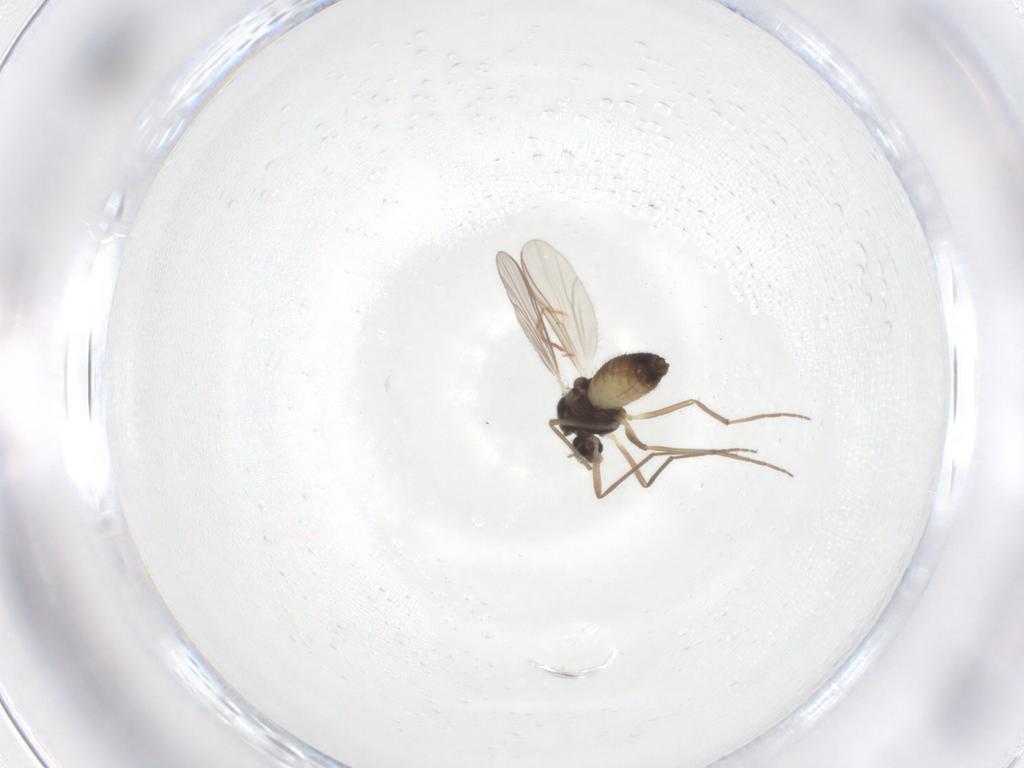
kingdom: Animalia
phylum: Arthropoda
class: Insecta
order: Diptera
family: Chironomidae
